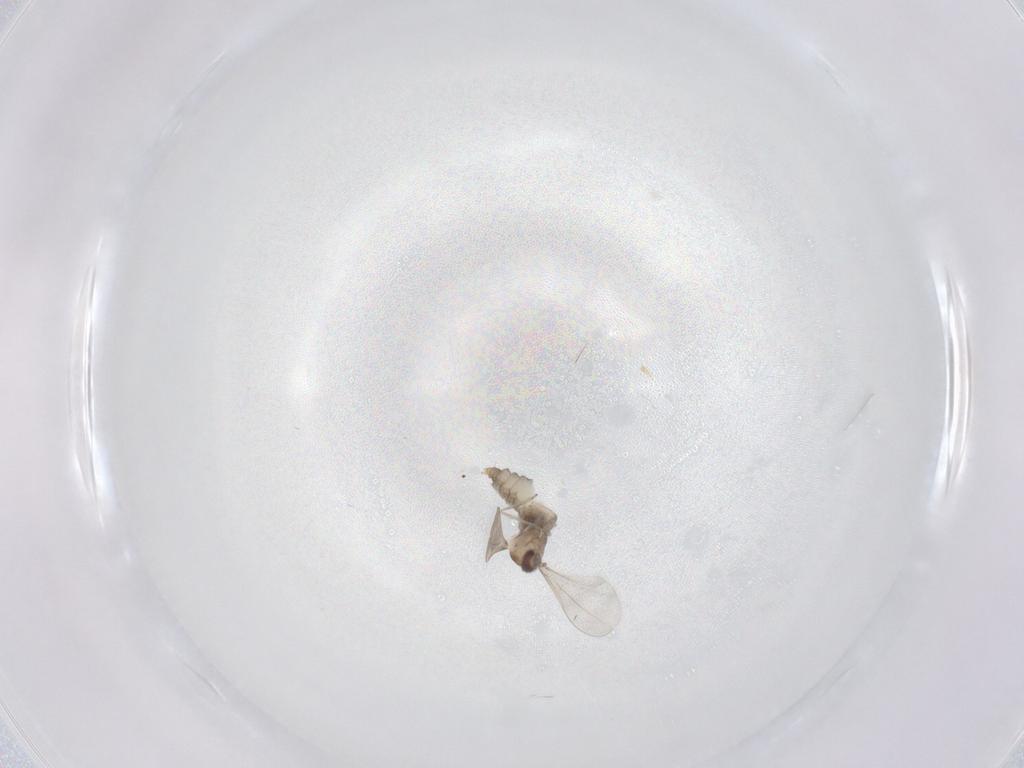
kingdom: Animalia
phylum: Arthropoda
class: Insecta
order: Diptera
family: Cecidomyiidae
